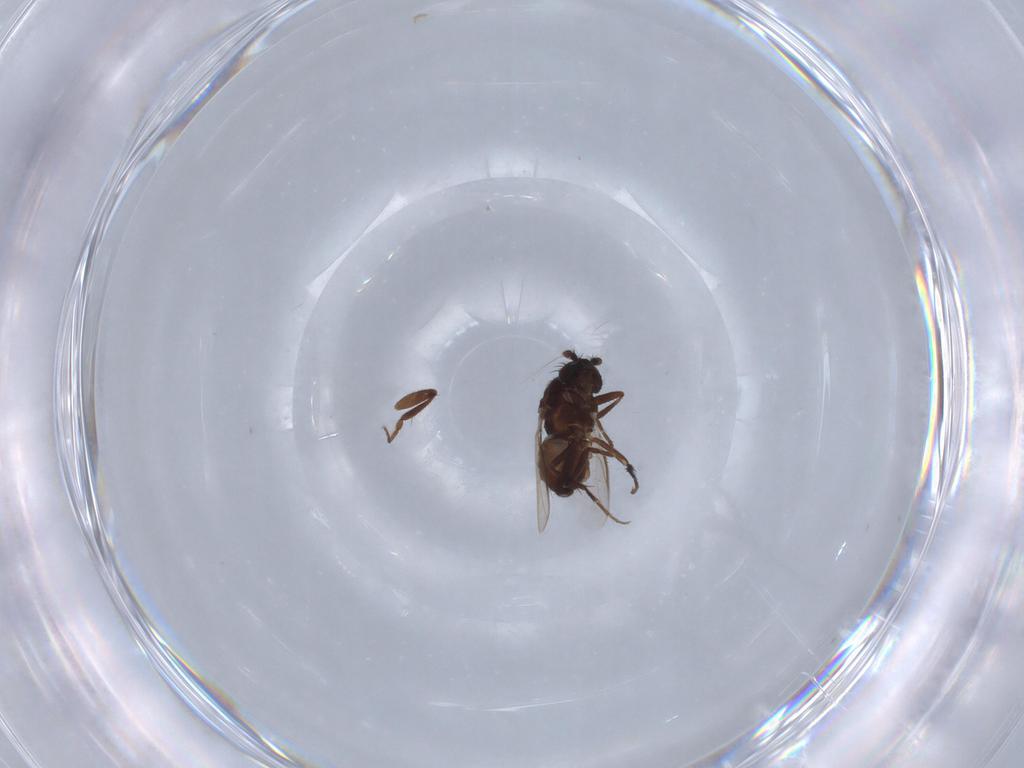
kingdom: Animalia
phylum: Arthropoda
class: Insecta
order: Diptera
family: Sphaeroceridae
